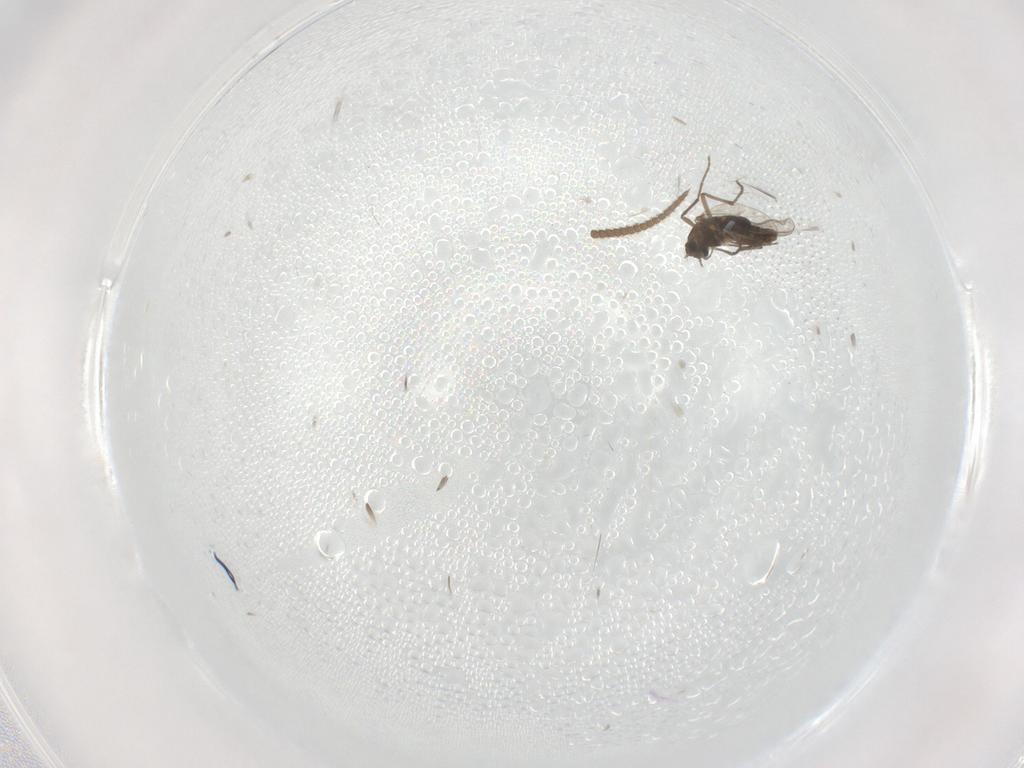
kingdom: Animalia
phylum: Arthropoda
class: Insecta
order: Diptera
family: Chironomidae
